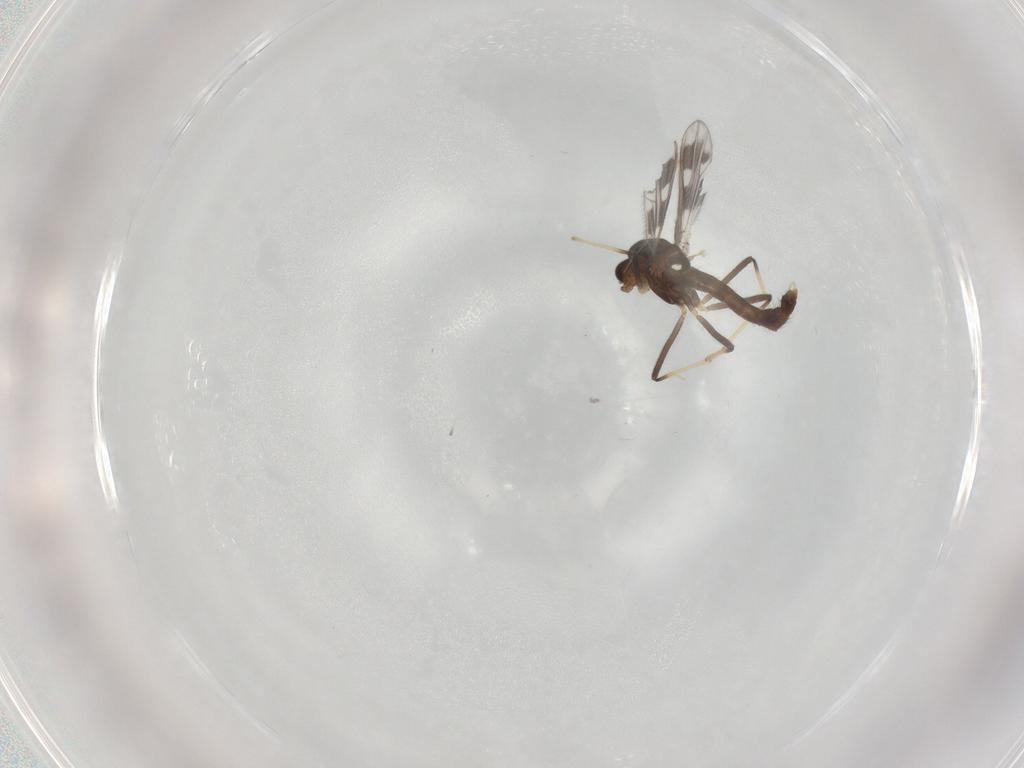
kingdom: Animalia
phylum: Arthropoda
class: Insecta
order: Diptera
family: Chironomidae
